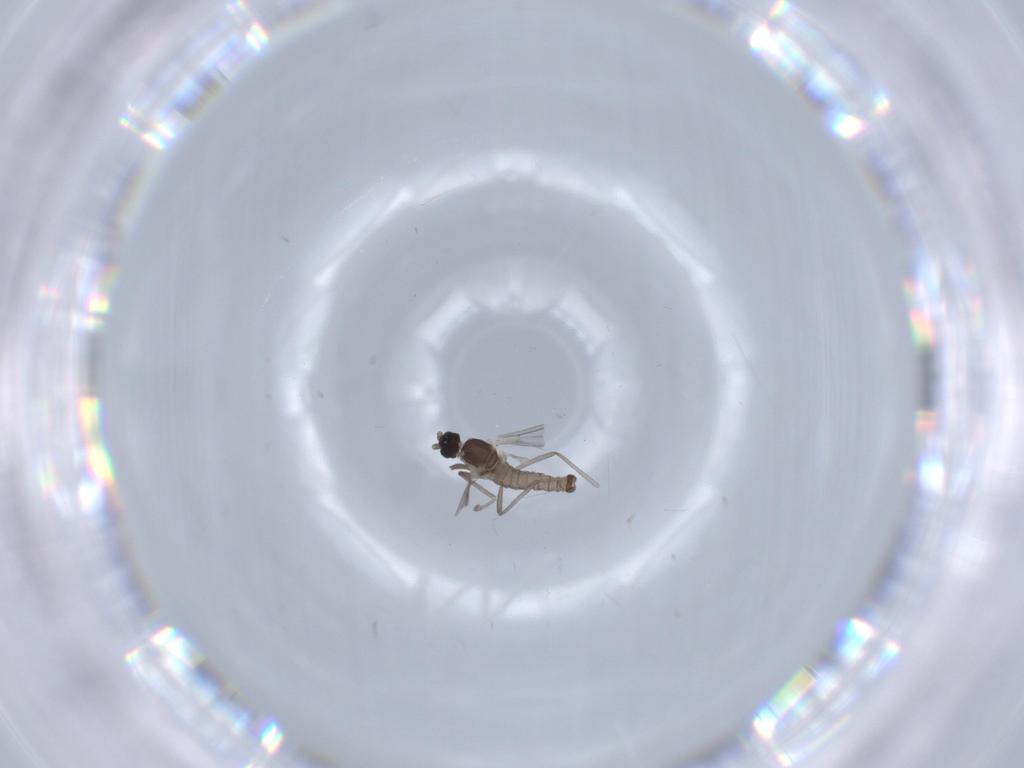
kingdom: Animalia
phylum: Arthropoda
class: Insecta
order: Diptera
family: Cecidomyiidae
